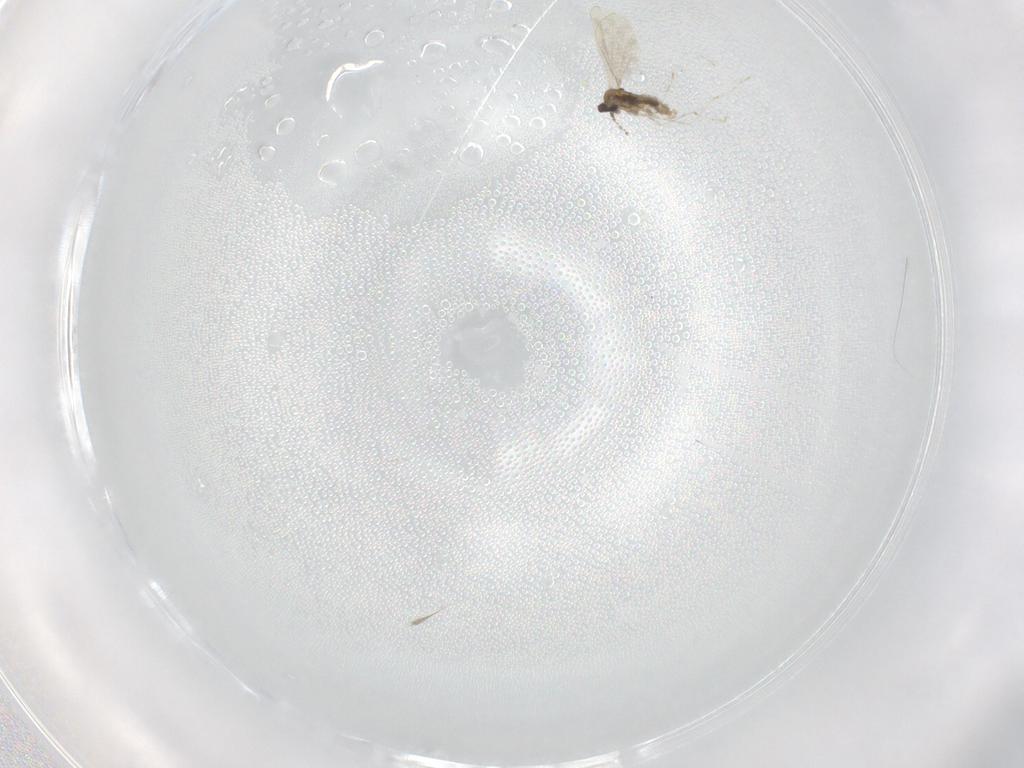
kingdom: Animalia
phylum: Arthropoda
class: Insecta
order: Diptera
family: Cecidomyiidae
